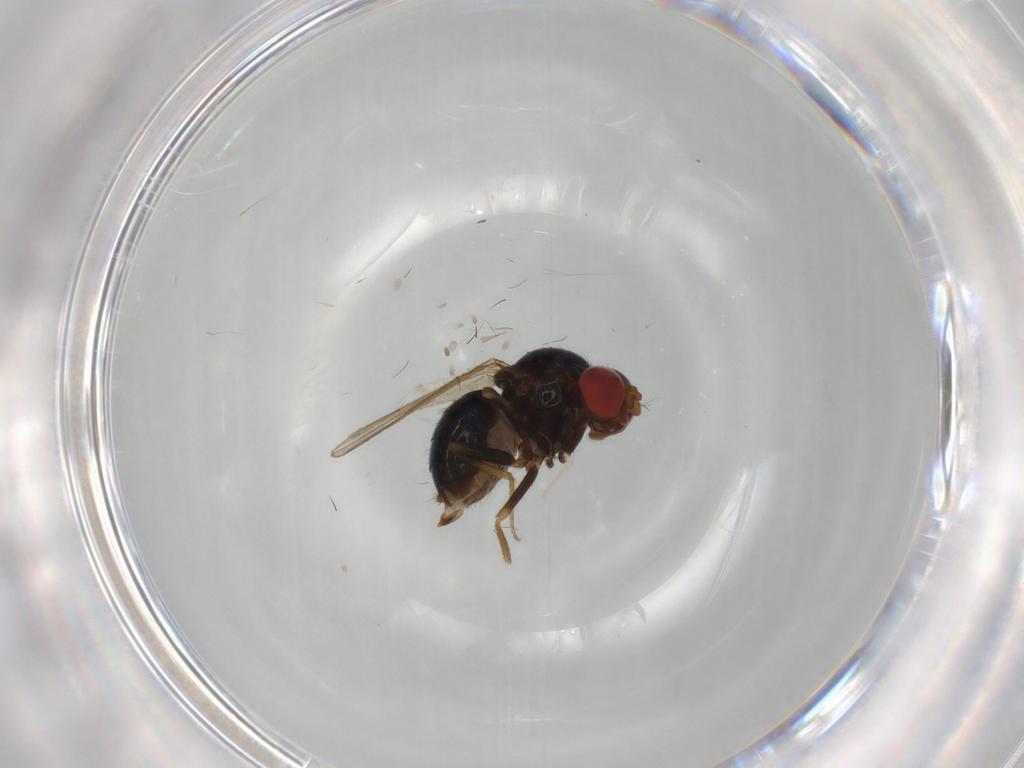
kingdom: Animalia
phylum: Arthropoda
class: Insecta
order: Diptera
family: Drosophilidae
